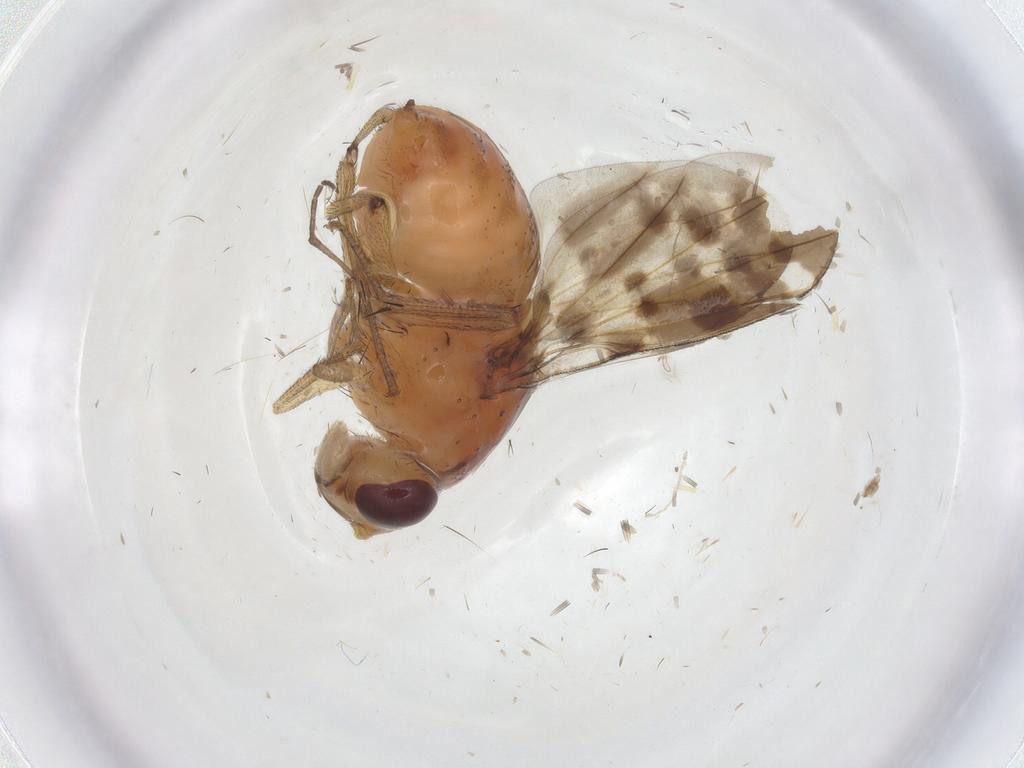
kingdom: Animalia
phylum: Arthropoda
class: Insecta
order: Diptera
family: Sciaridae
